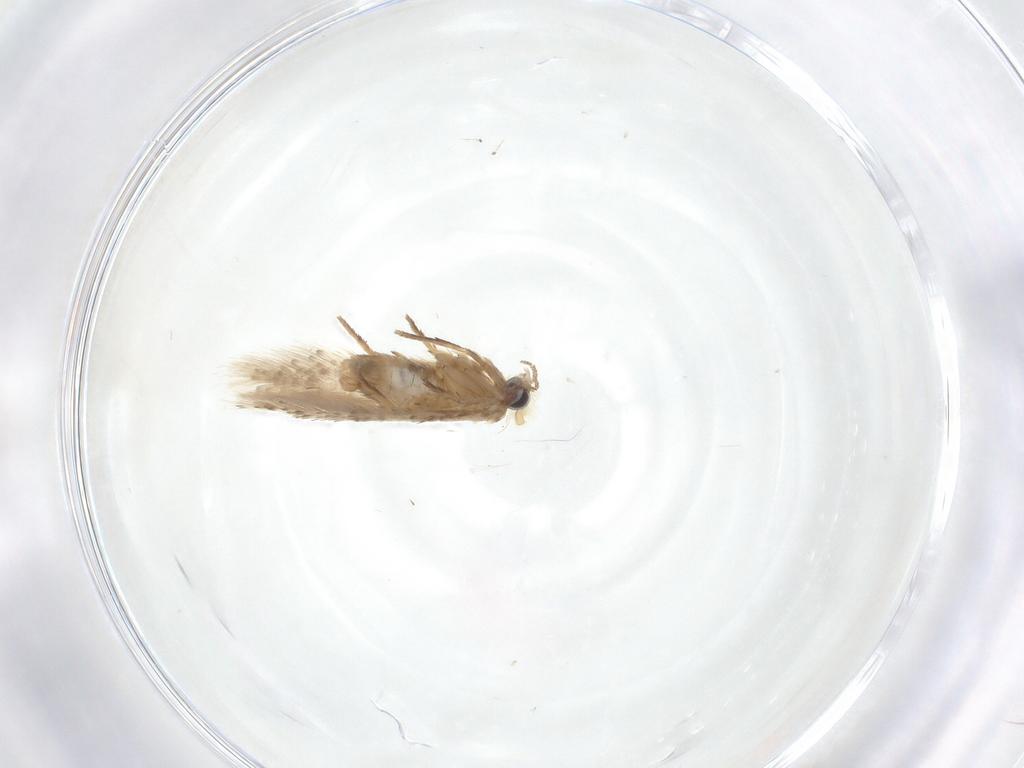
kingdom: Animalia
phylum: Arthropoda
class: Insecta
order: Lepidoptera
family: Nepticulidae
